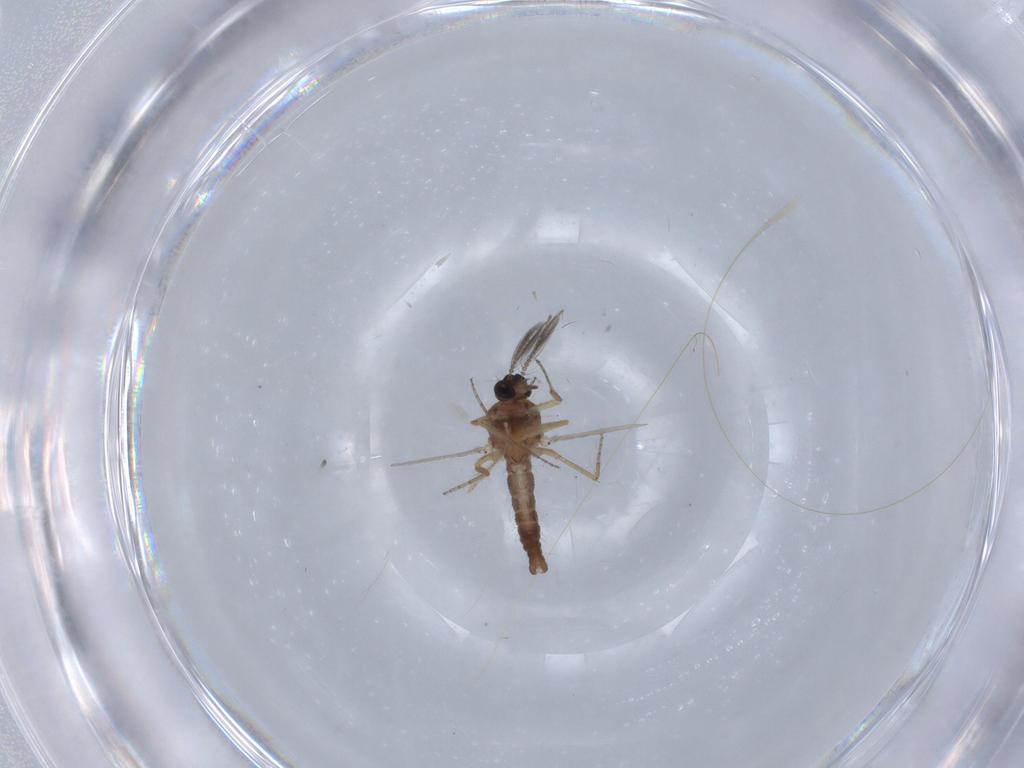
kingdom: Animalia
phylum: Arthropoda
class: Insecta
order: Diptera
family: Ceratopogonidae
